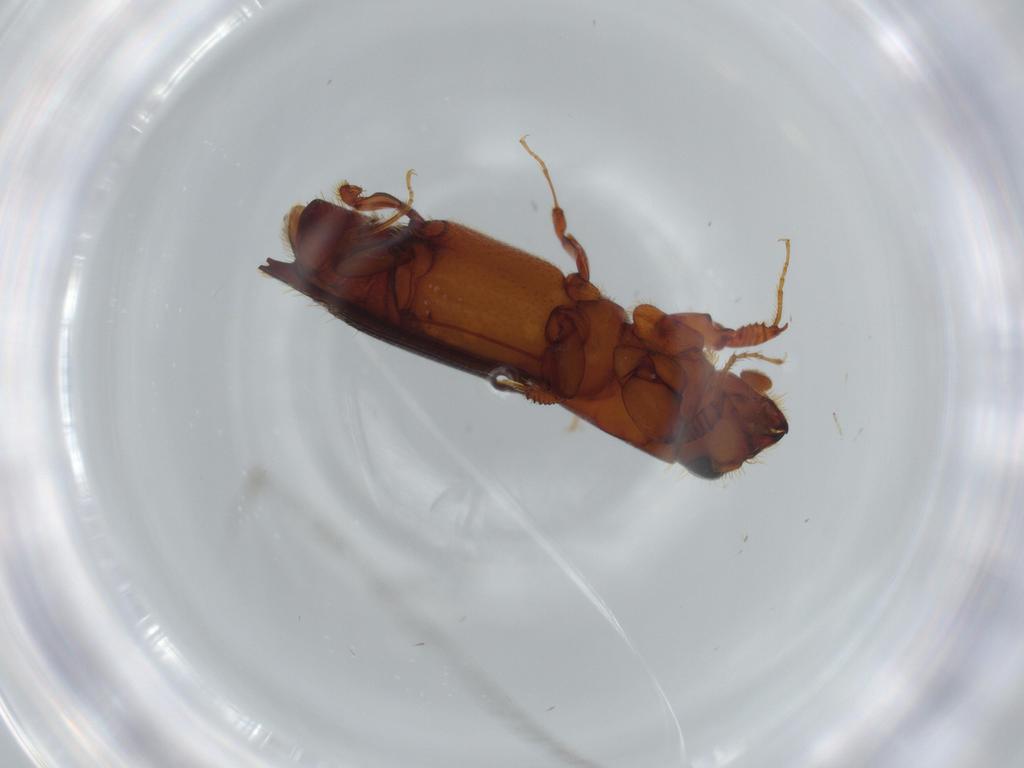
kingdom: Animalia
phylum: Arthropoda
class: Insecta
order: Coleoptera
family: Curculionidae
